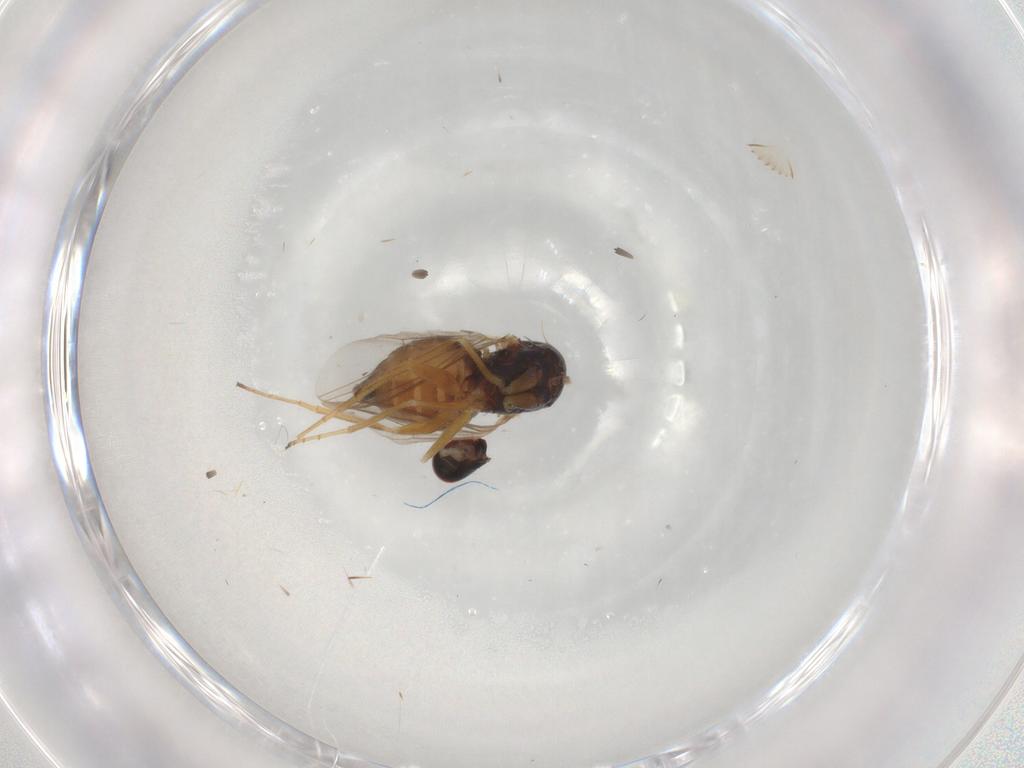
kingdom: Animalia
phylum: Arthropoda
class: Insecta
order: Diptera
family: Dolichopodidae
